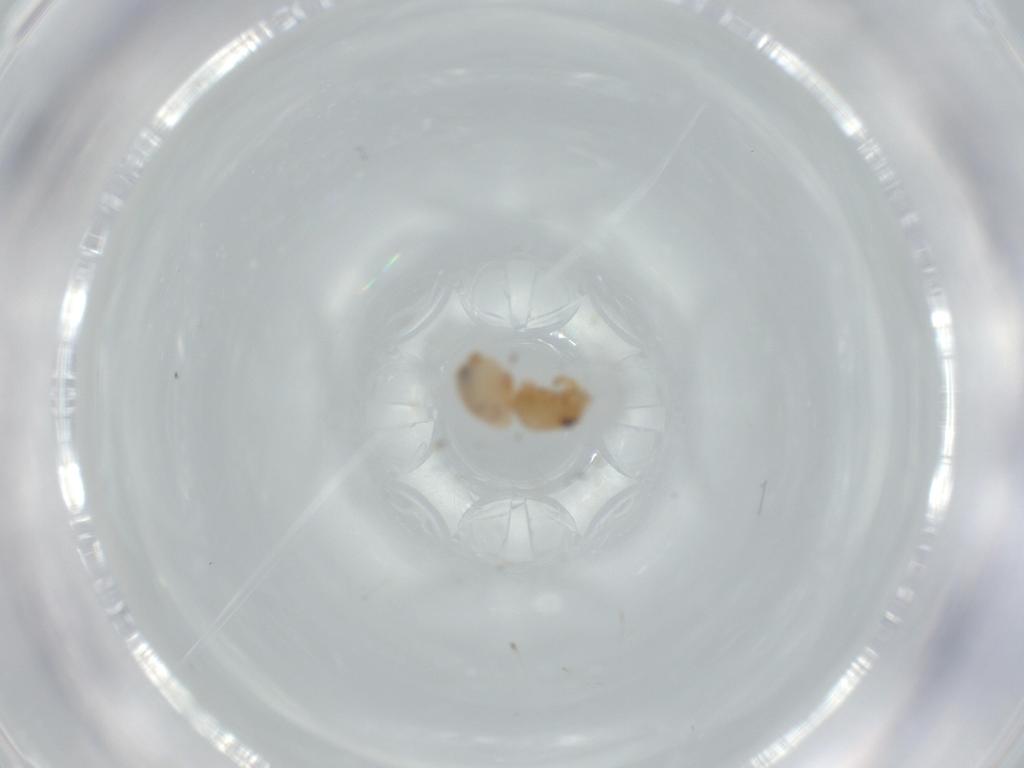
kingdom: Animalia
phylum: Arthropoda
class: Arachnida
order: Araneae
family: Oonopidae
